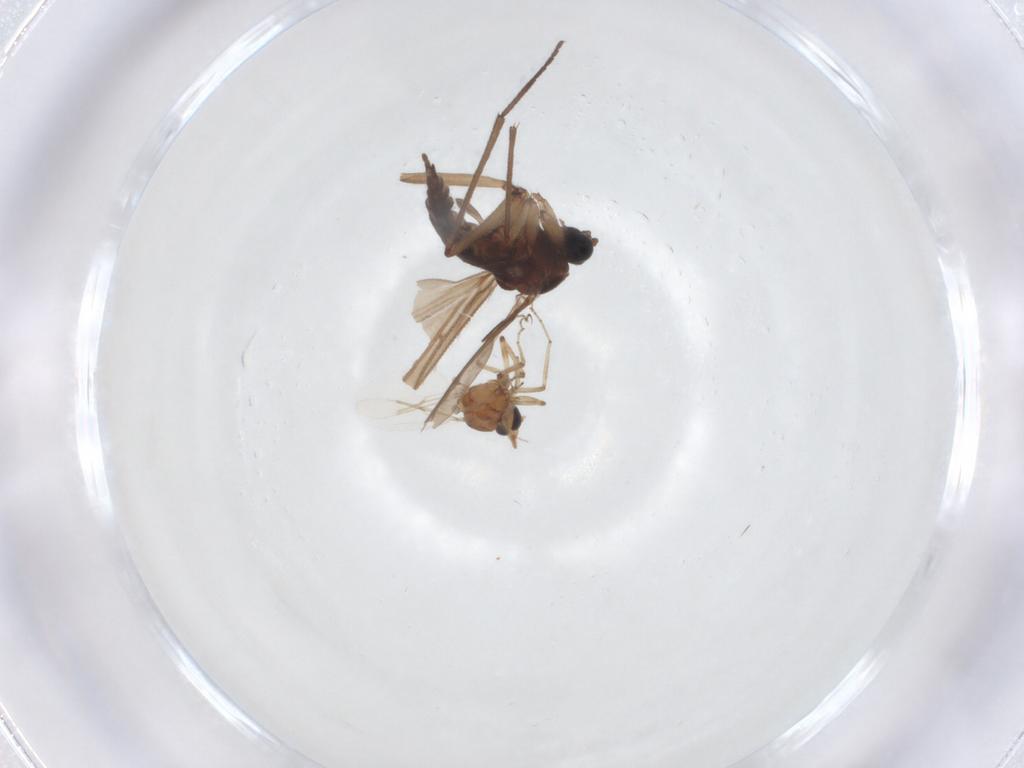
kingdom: Animalia
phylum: Arthropoda
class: Insecta
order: Diptera
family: Sciaridae
